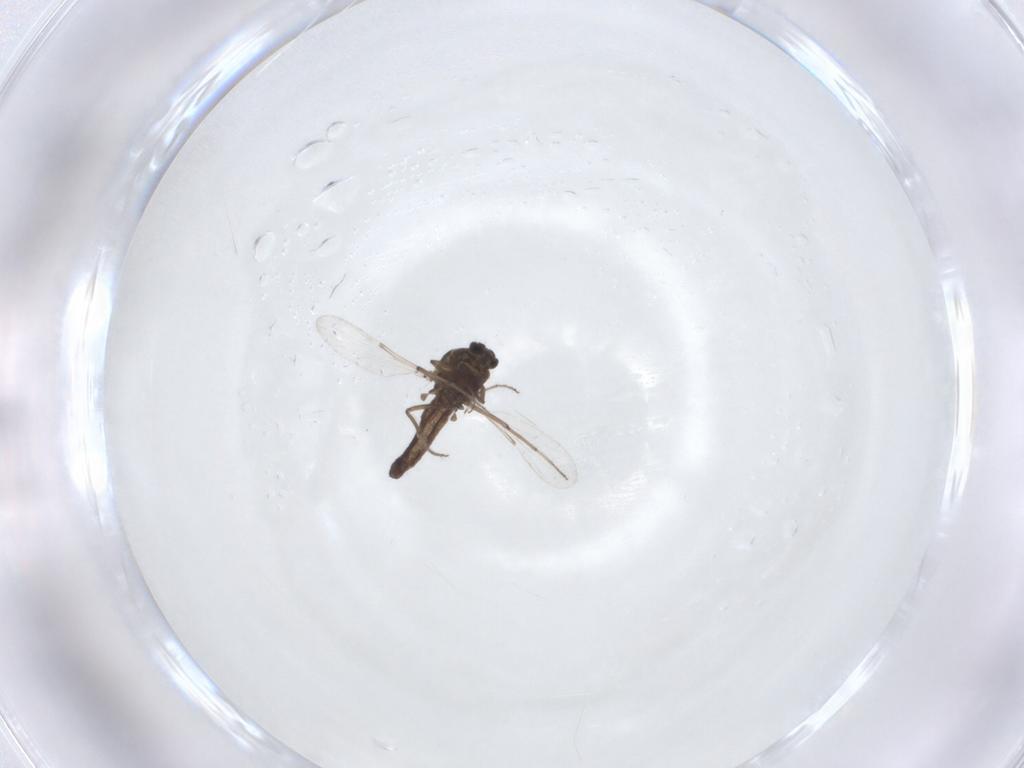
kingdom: Animalia
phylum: Arthropoda
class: Insecta
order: Diptera
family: Ceratopogonidae
